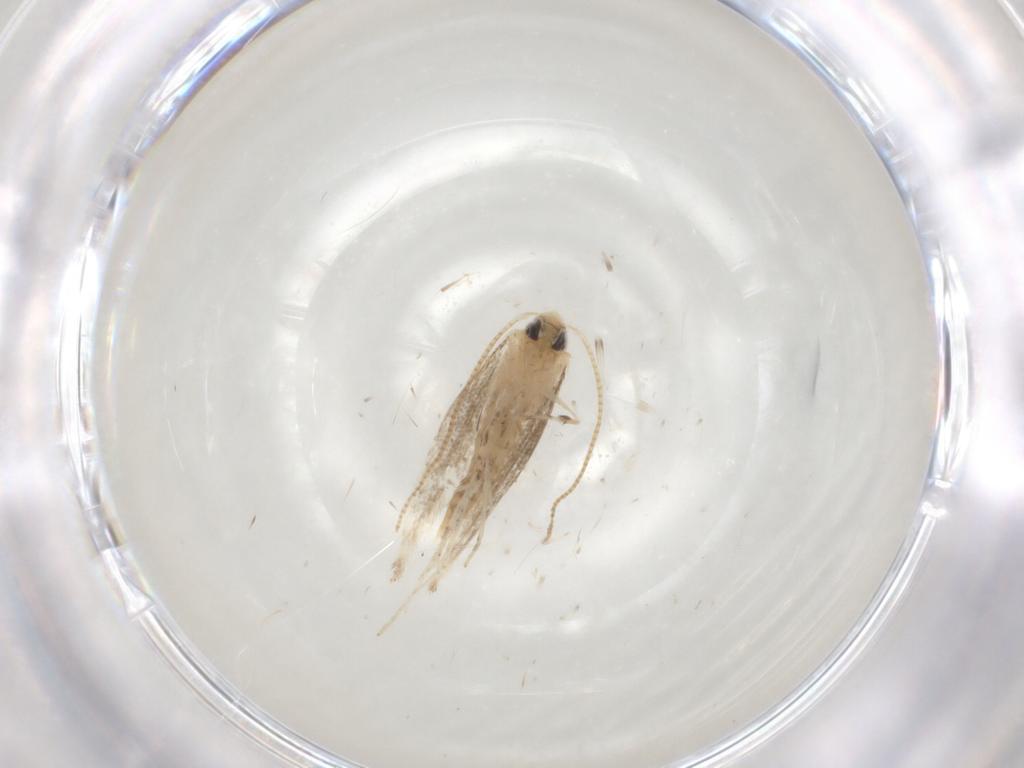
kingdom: Animalia
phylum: Arthropoda
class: Insecta
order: Lepidoptera
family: Gracillariidae
